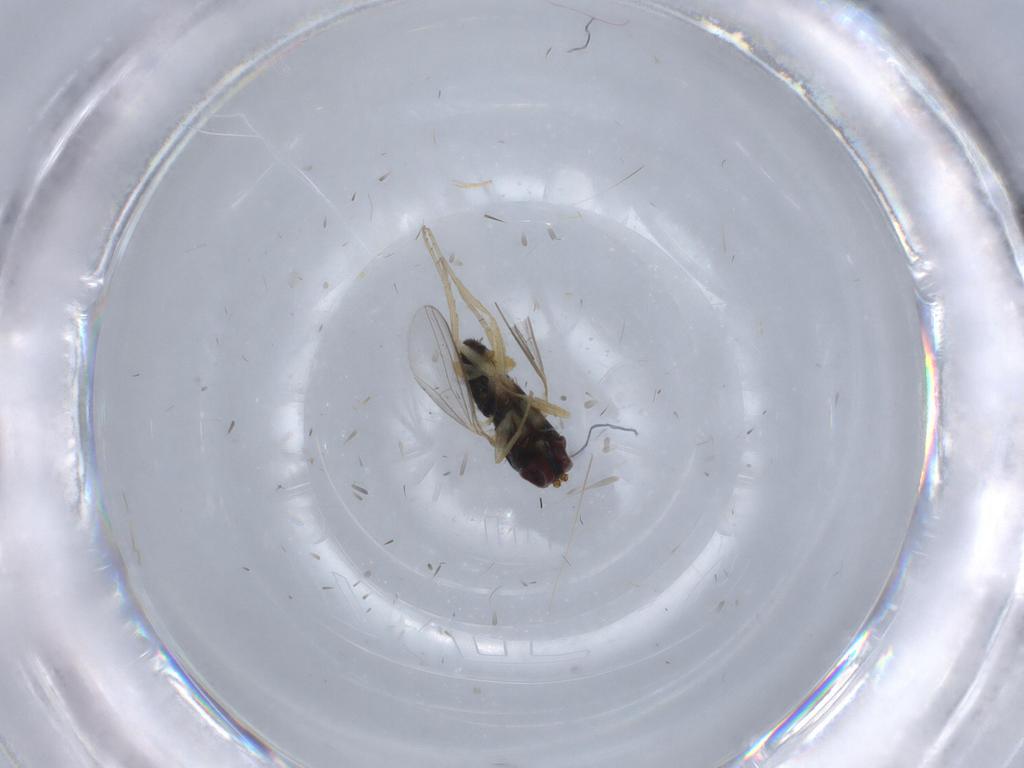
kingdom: Animalia
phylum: Arthropoda
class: Insecta
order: Diptera
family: Dolichopodidae
